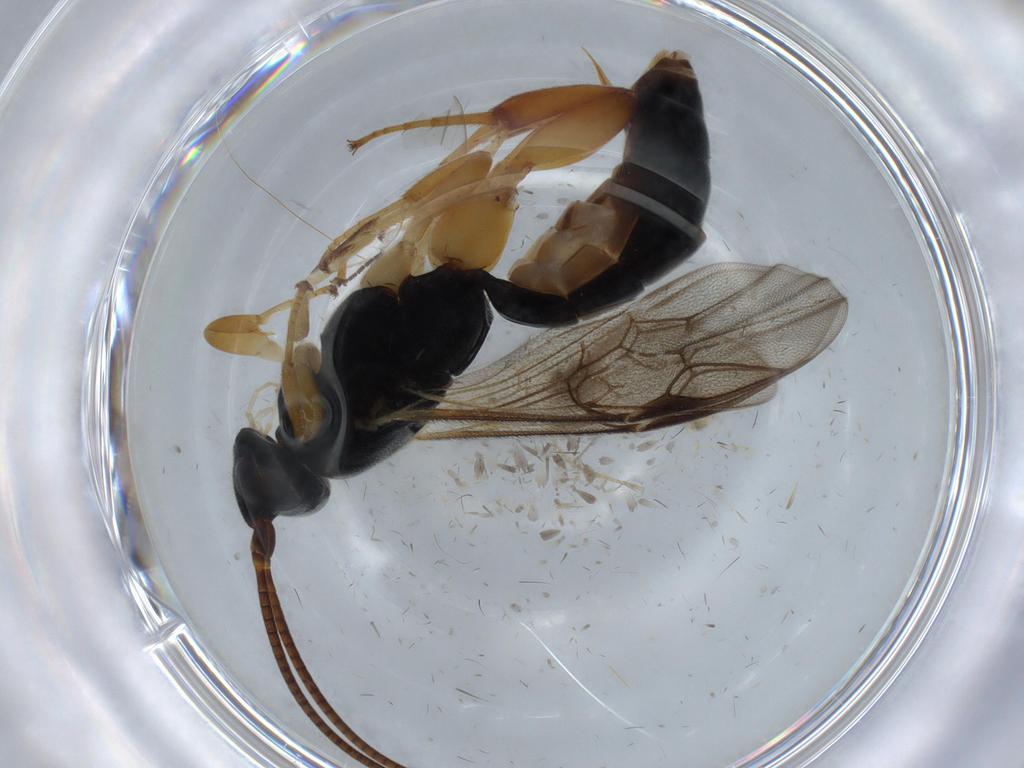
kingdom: Animalia
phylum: Arthropoda
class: Insecta
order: Hymenoptera
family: Ichneumonidae
